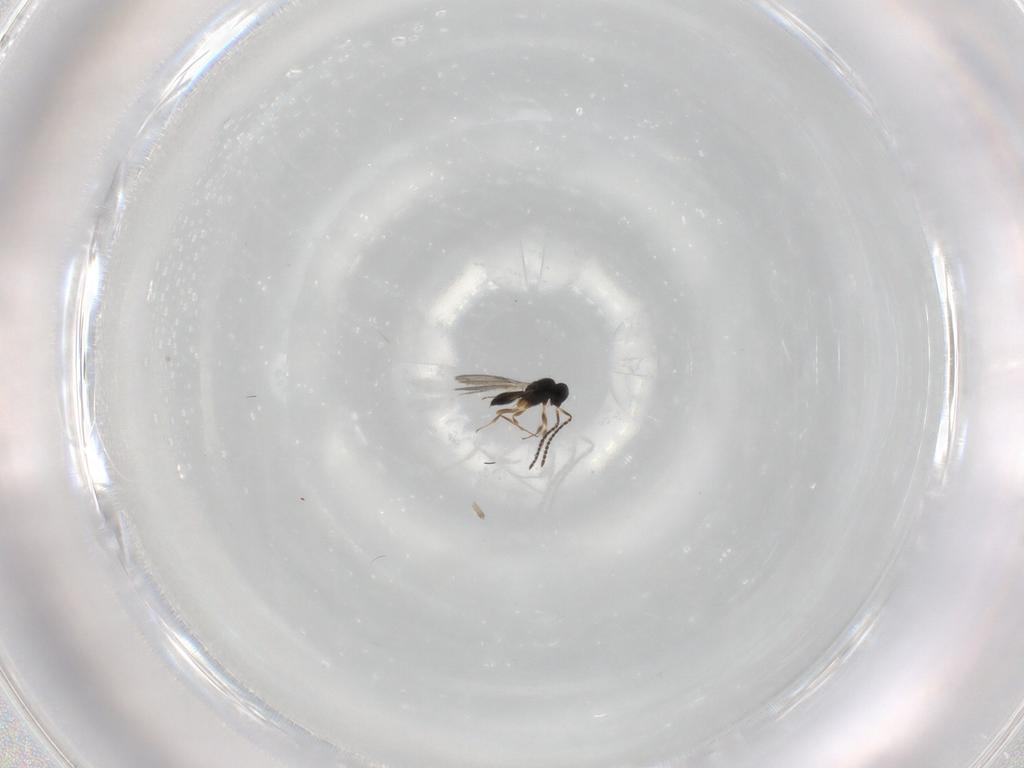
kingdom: Animalia
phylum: Arthropoda
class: Insecta
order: Hymenoptera
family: Scelionidae
